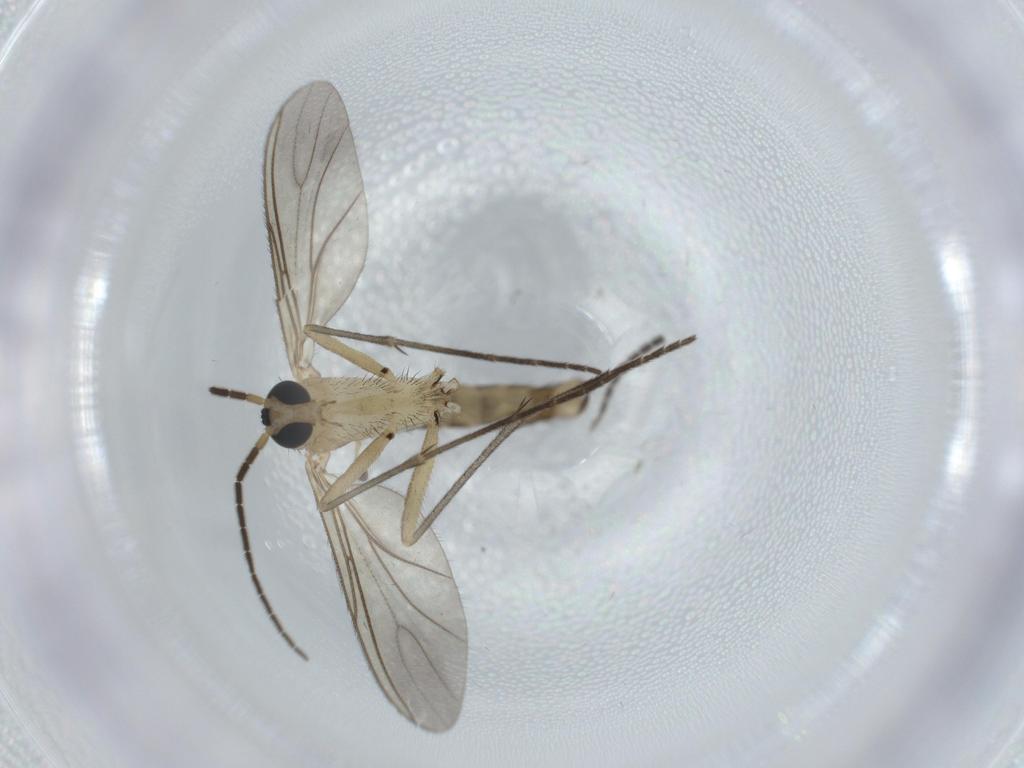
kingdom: Animalia
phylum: Arthropoda
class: Insecta
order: Diptera
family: Sciaridae
